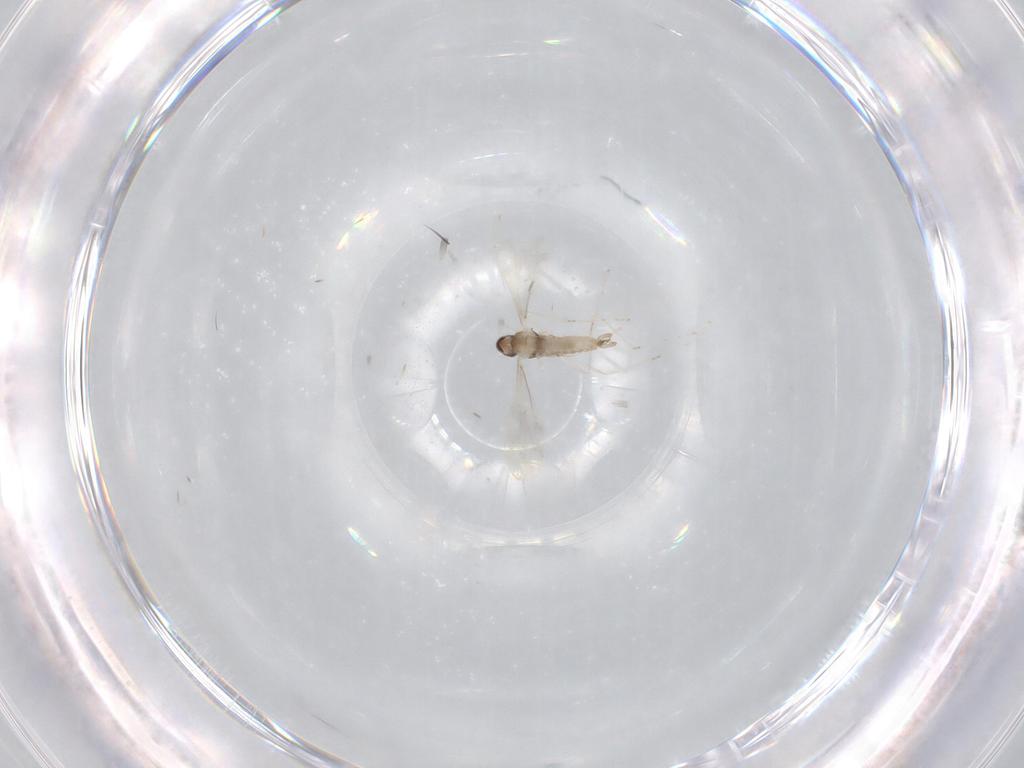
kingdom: Animalia
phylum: Arthropoda
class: Insecta
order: Diptera
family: Cecidomyiidae
